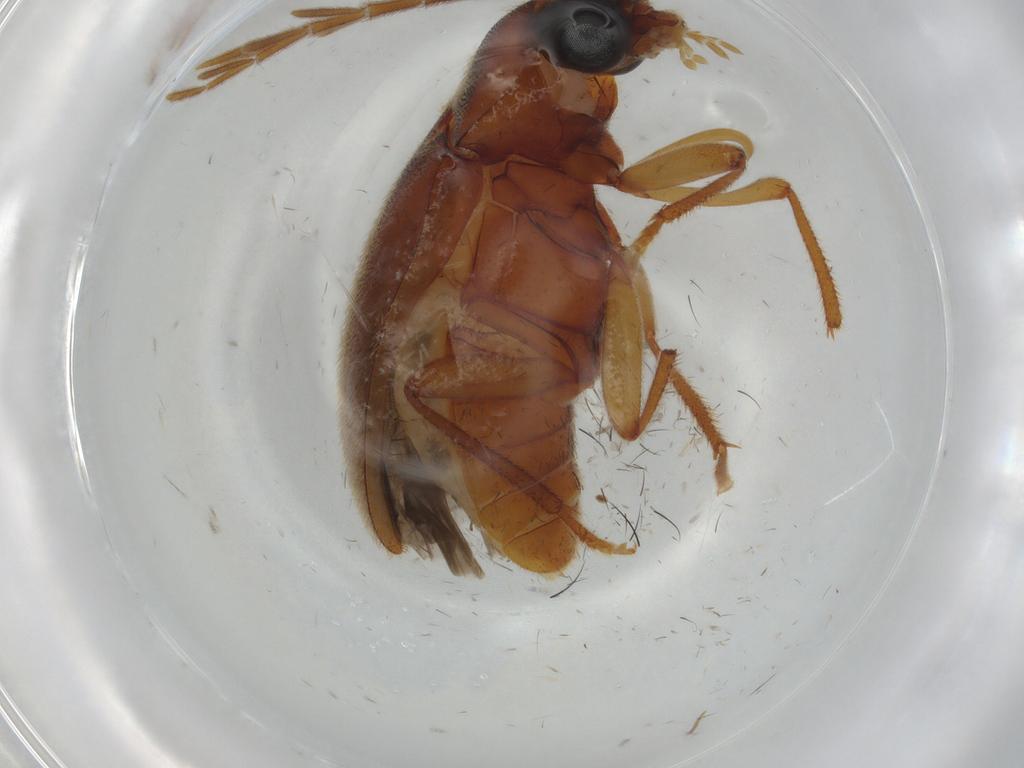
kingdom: Animalia
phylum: Arthropoda
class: Insecta
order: Coleoptera
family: Ptilodactylidae
